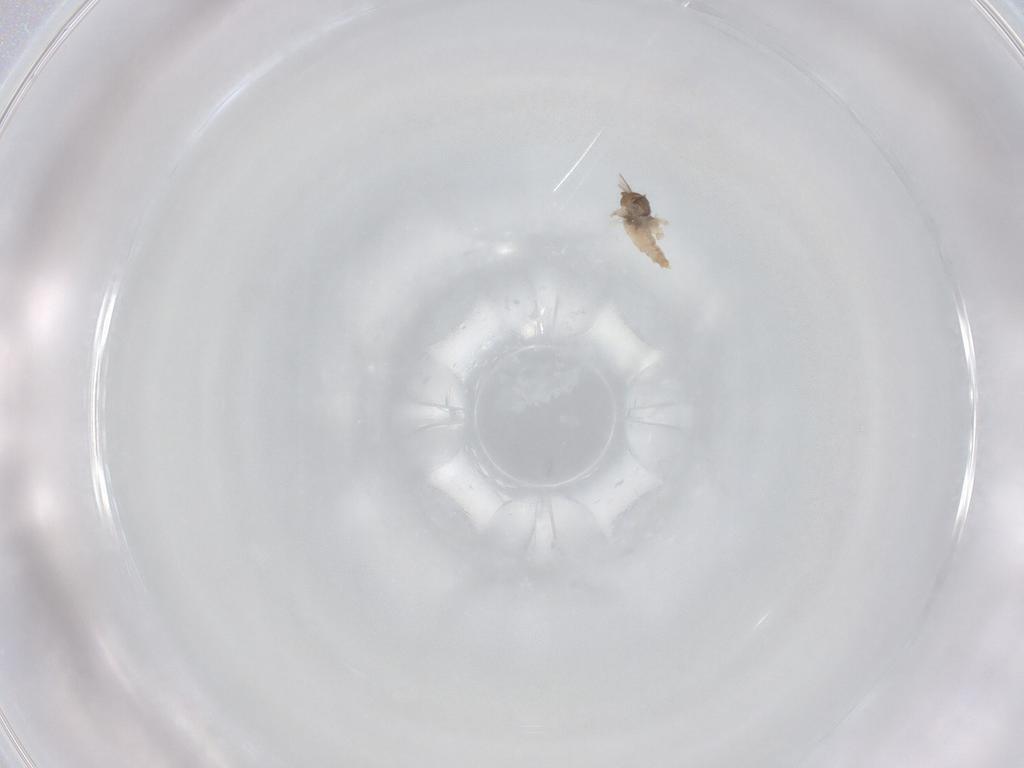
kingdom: Animalia
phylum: Arthropoda
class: Insecta
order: Diptera
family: Cecidomyiidae
